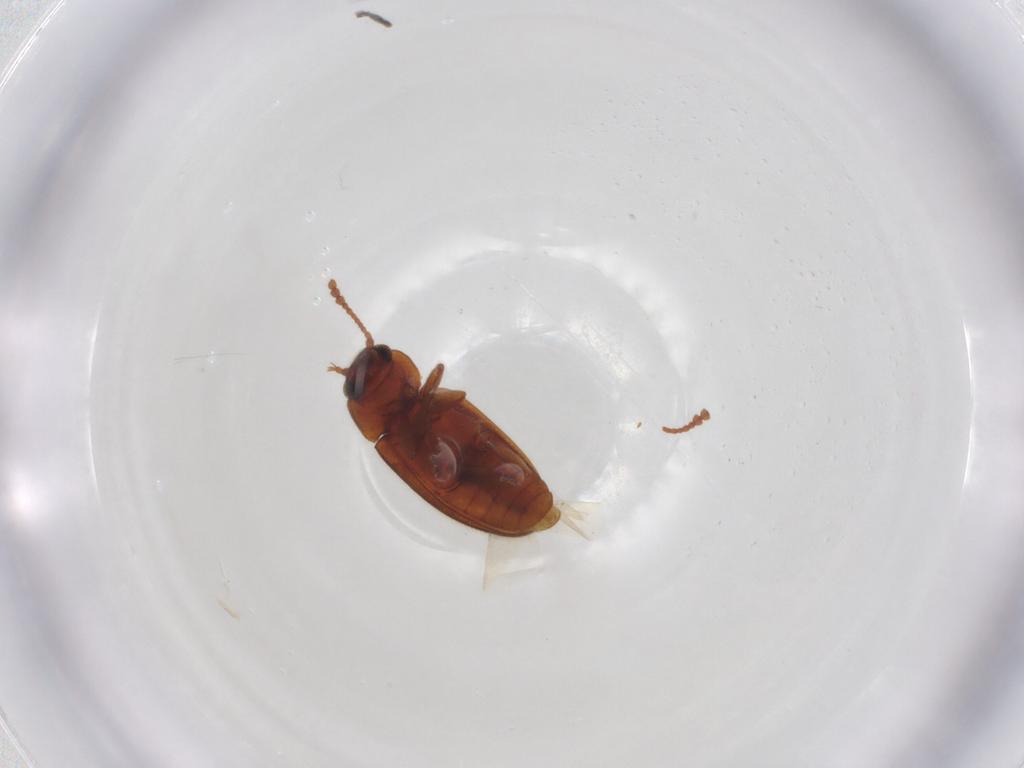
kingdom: Animalia
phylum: Arthropoda
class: Insecta
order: Coleoptera
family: Erotylidae
